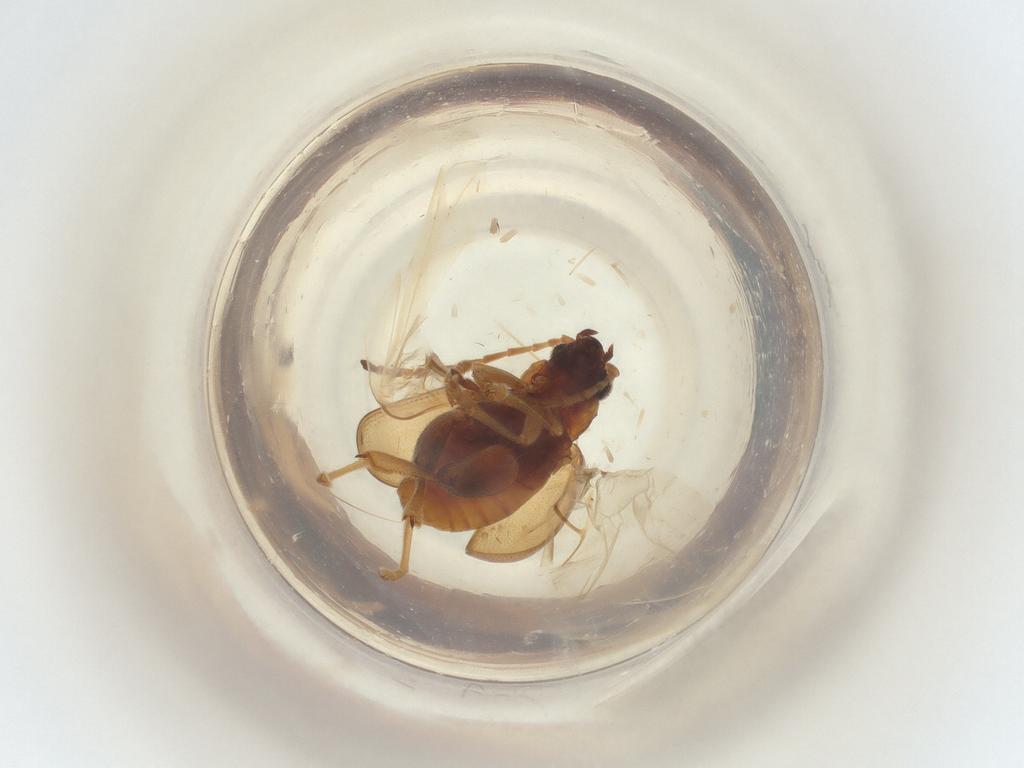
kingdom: Animalia
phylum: Arthropoda
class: Insecta
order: Coleoptera
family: Chrysomelidae
